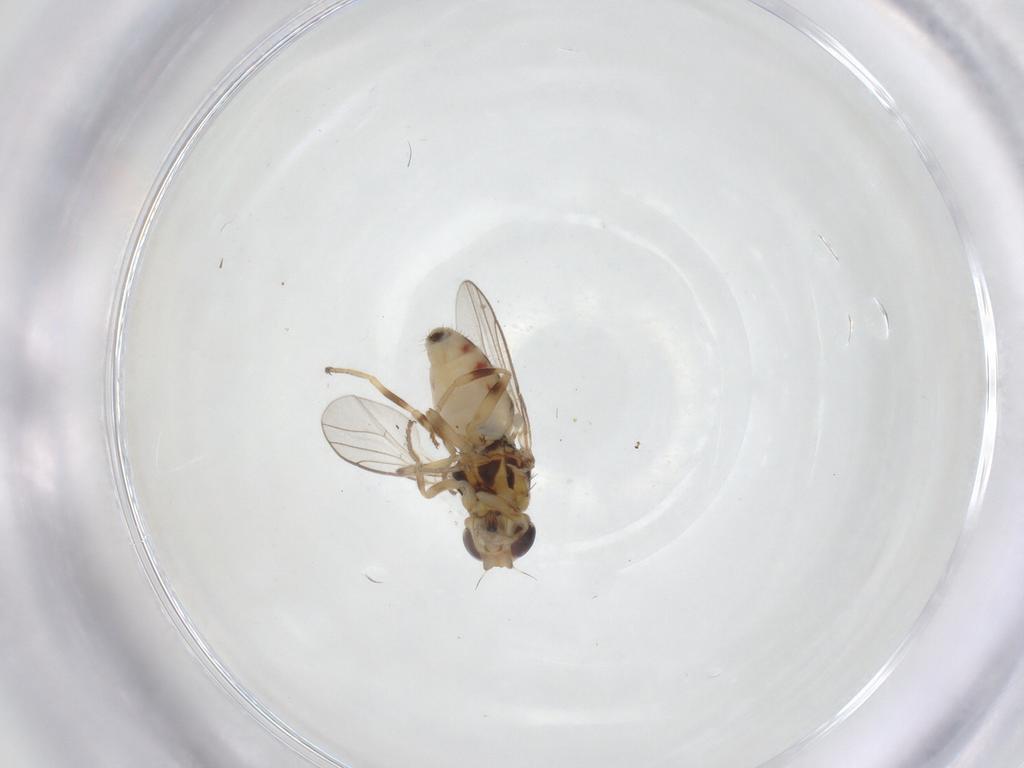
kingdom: Animalia
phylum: Arthropoda
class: Insecta
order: Diptera
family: Chloropidae
